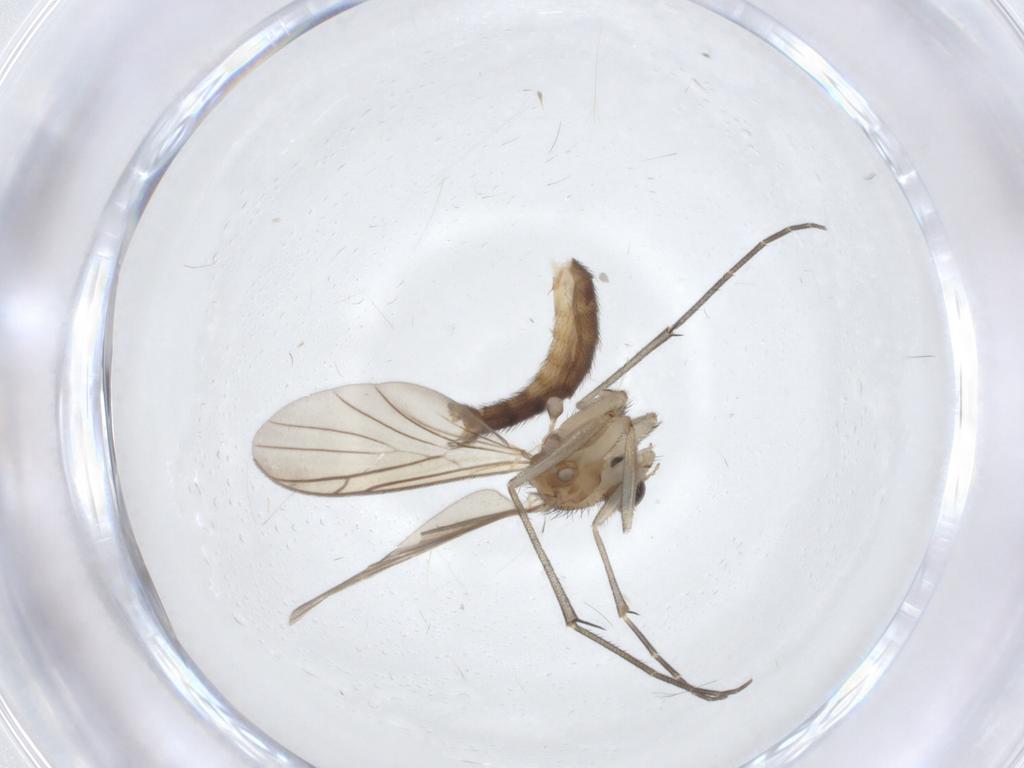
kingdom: Animalia
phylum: Arthropoda
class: Insecta
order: Diptera
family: Keroplatidae
